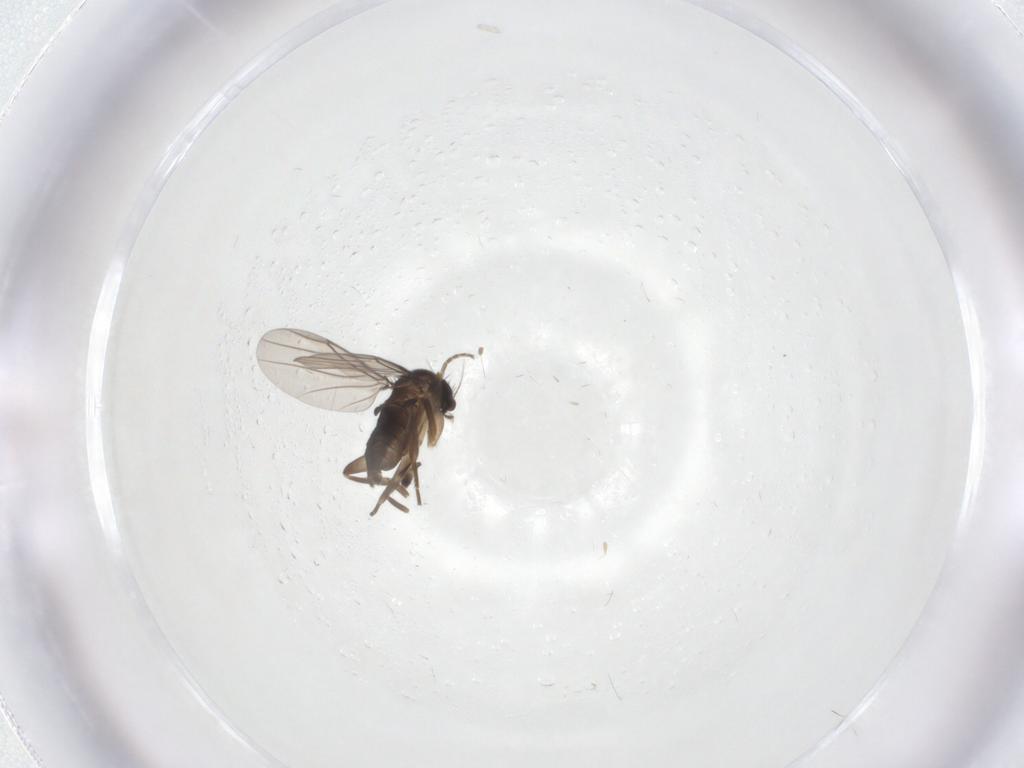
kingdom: Animalia
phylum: Arthropoda
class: Insecta
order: Diptera
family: Phoridae
